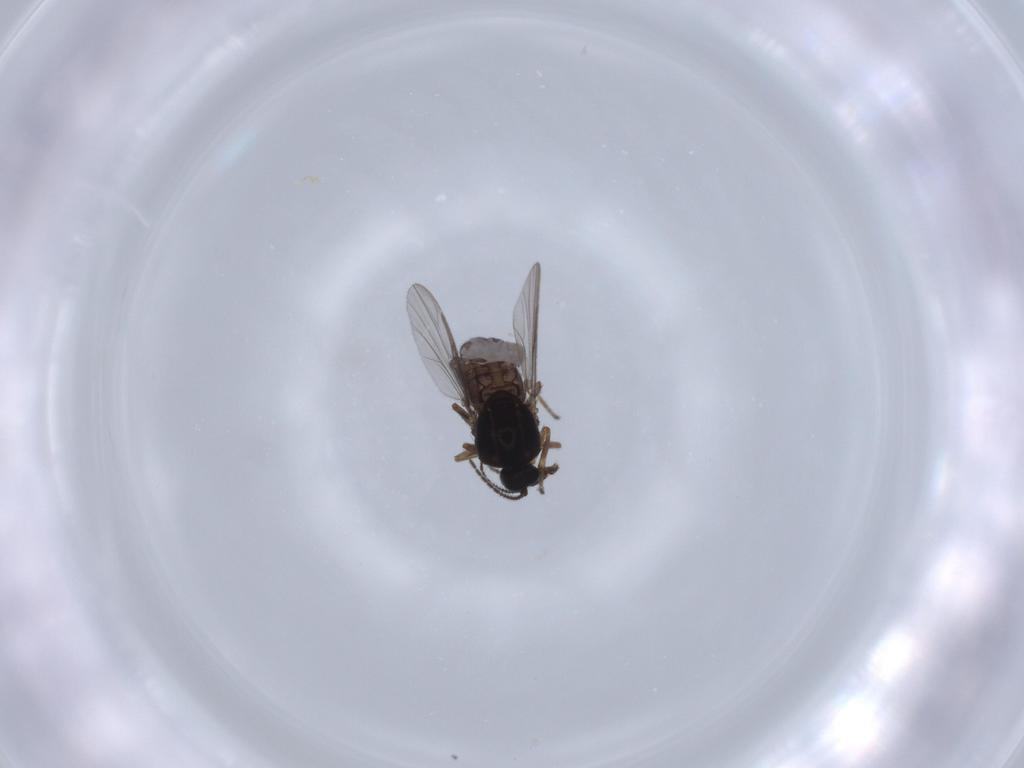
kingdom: Animalia
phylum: Arthropoda
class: Insecta
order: Diptera
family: Ceratopogonidae
